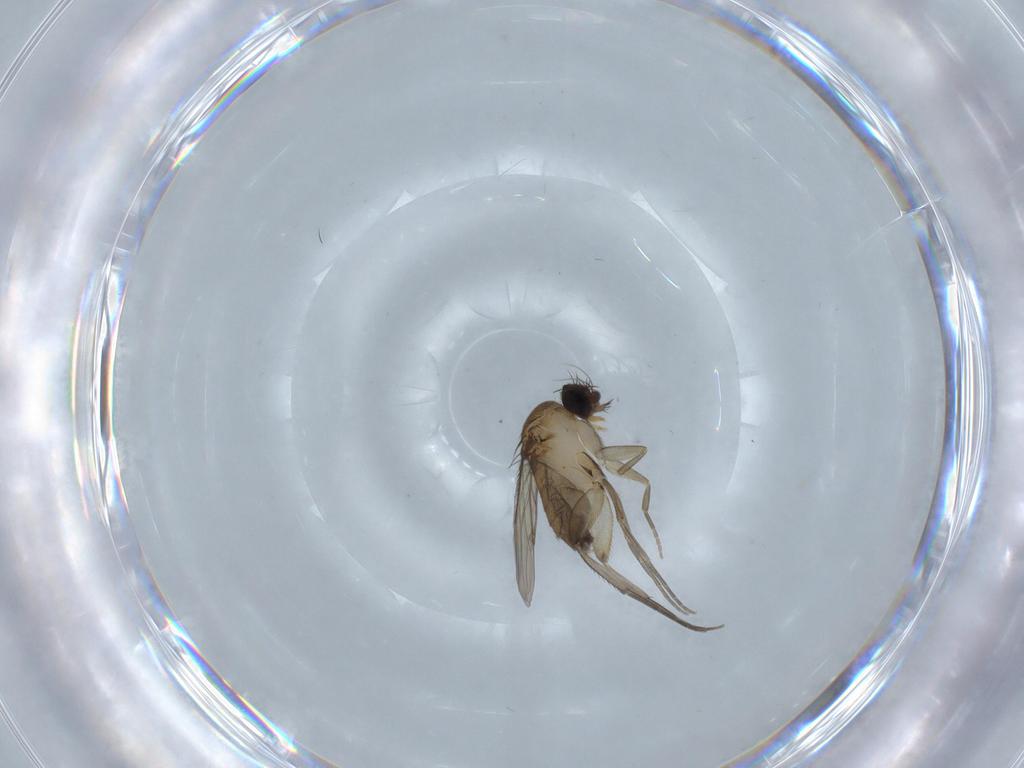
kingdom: Animalia
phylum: Arthropoda
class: Insecta
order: Diptera
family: Phoridae
